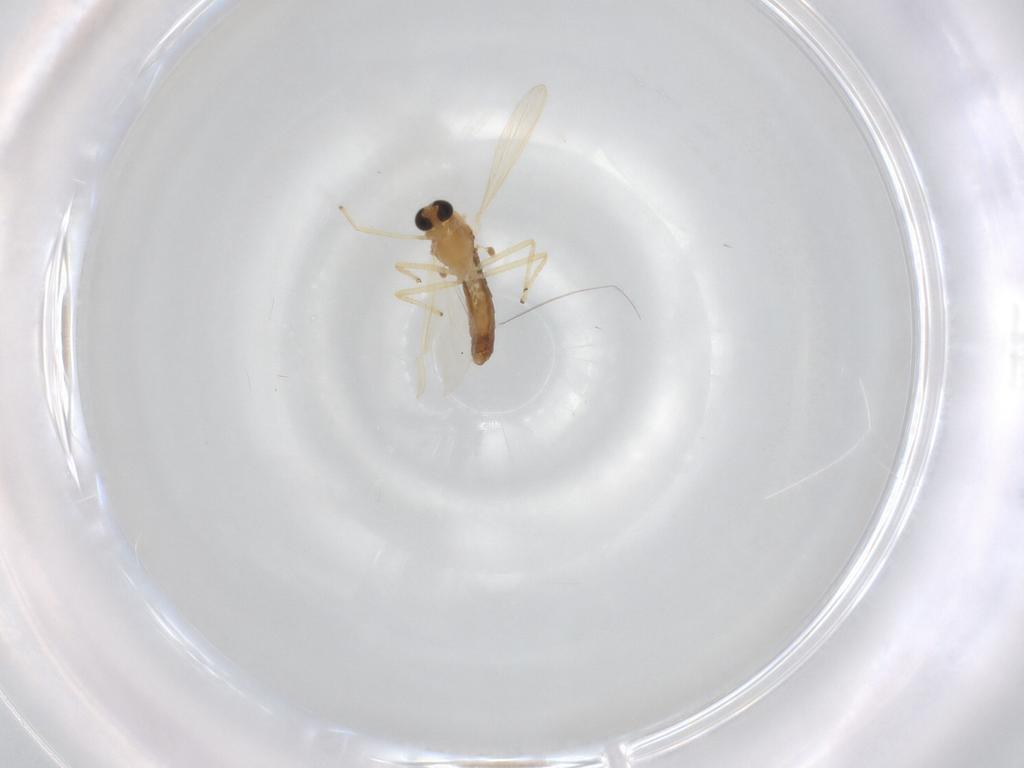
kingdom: Animalia
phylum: Arthropoda
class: Insecta
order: Diptera
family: Chironomidae
